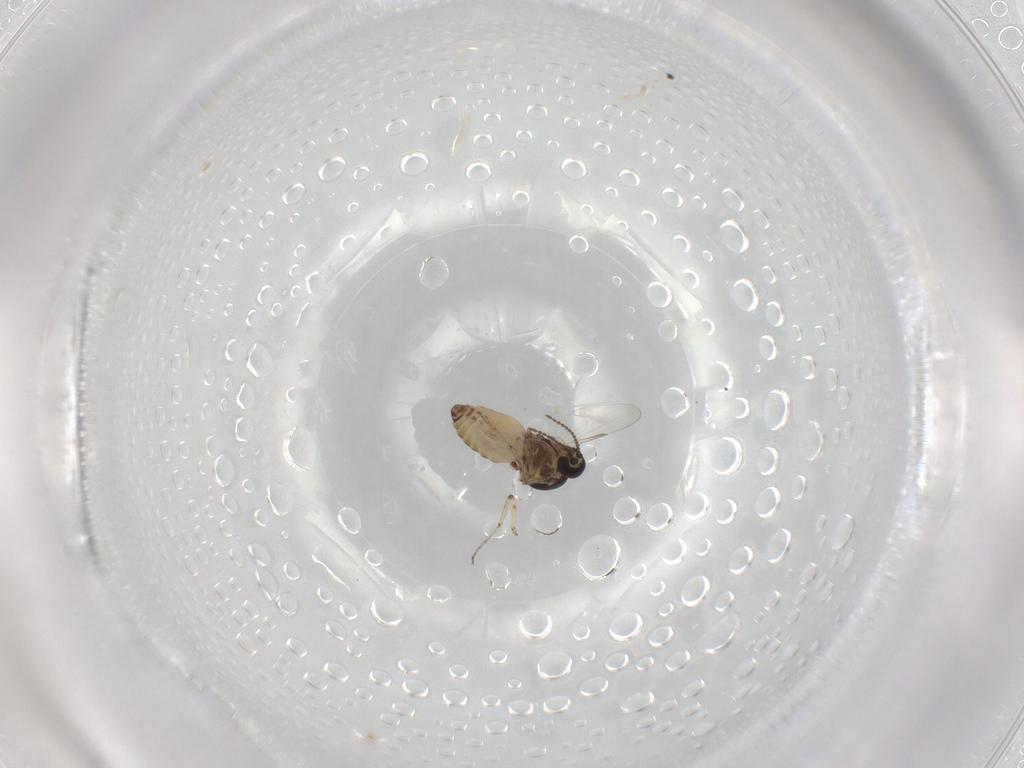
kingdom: Animalia
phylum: Arthropoda
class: Insecta
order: Diptera
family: Ceratopogonidae
